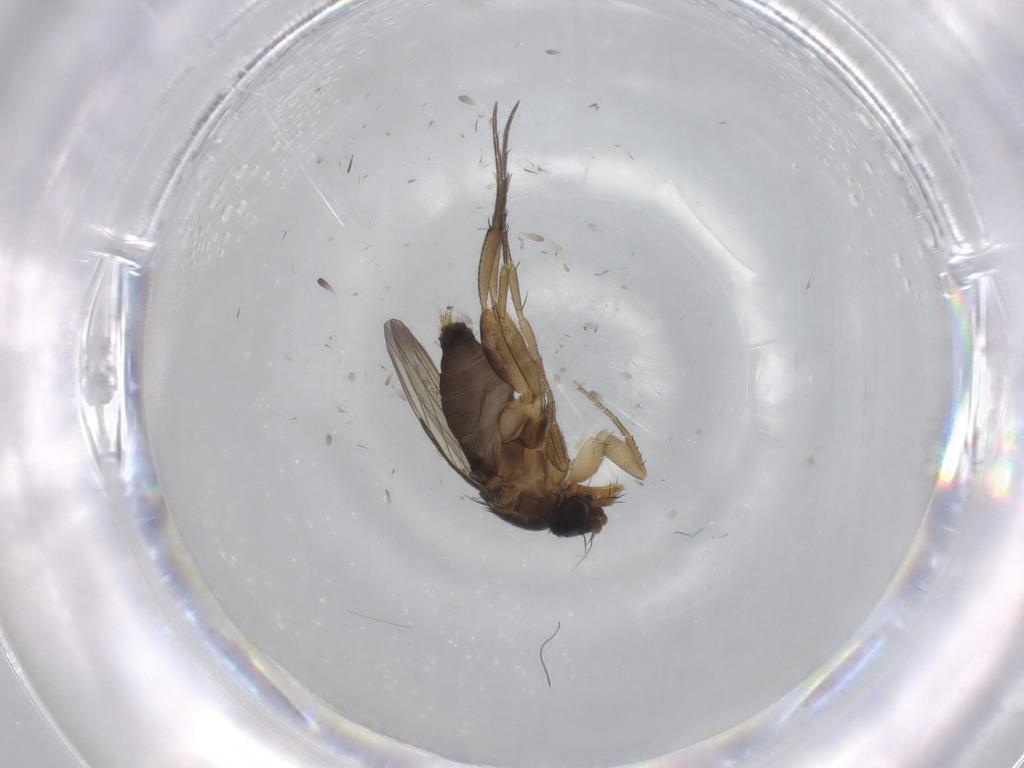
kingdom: Animalia
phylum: Arthropoda
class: Insecta
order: Diptera
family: Phoridae
